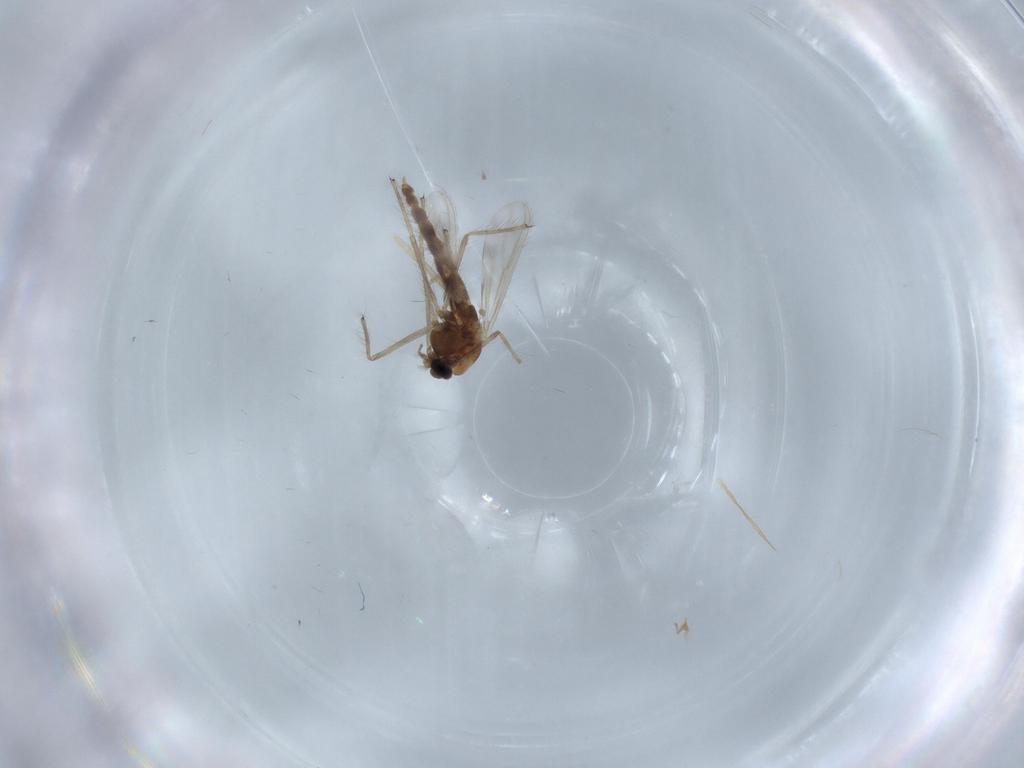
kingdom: Animalia
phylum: Arthropoda
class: Insecta
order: Diptera
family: Chironomidae
